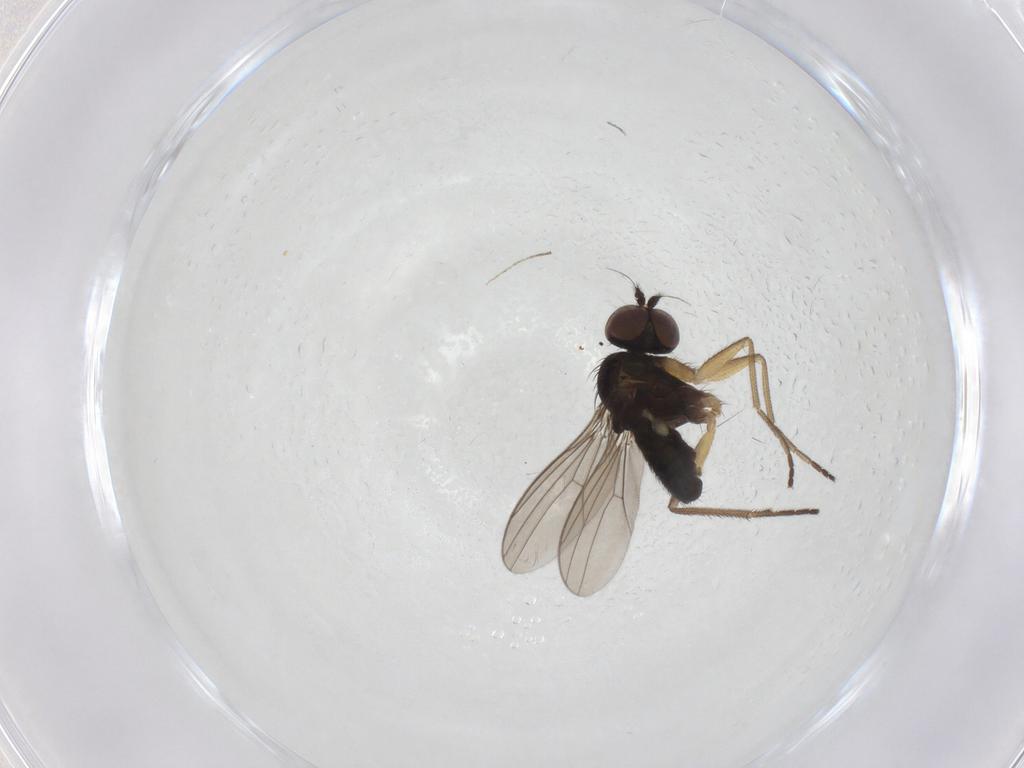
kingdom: Animalia
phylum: Arthropoda
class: Insecta
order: Diptera
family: Dolichopodidae
